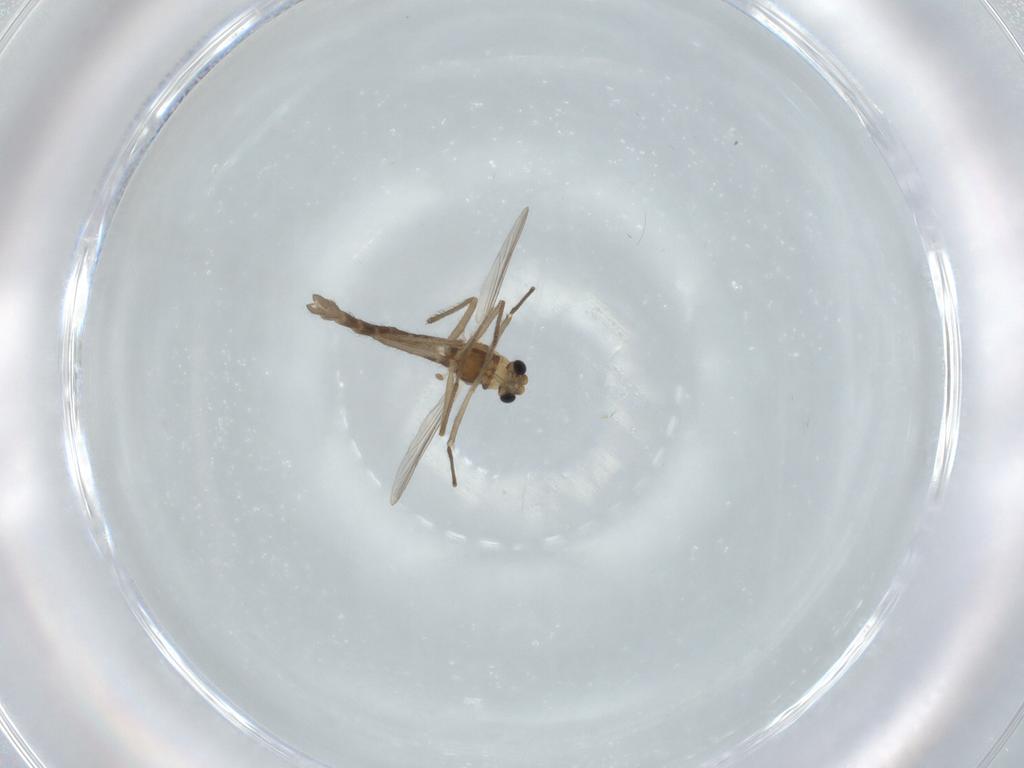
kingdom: Animalia
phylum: Arthropoda
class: Insecta
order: Diptera
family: Chironomidae
